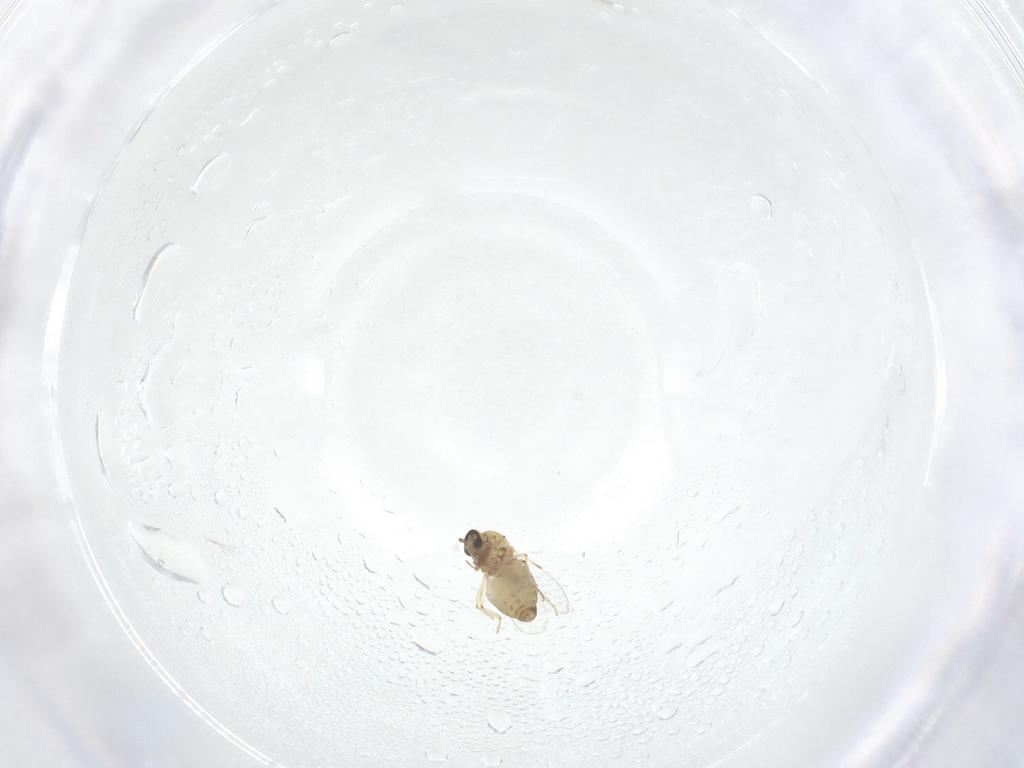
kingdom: Animalia
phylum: Arthropoda
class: Insecta
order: Diptera
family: Ceratopogonidae
